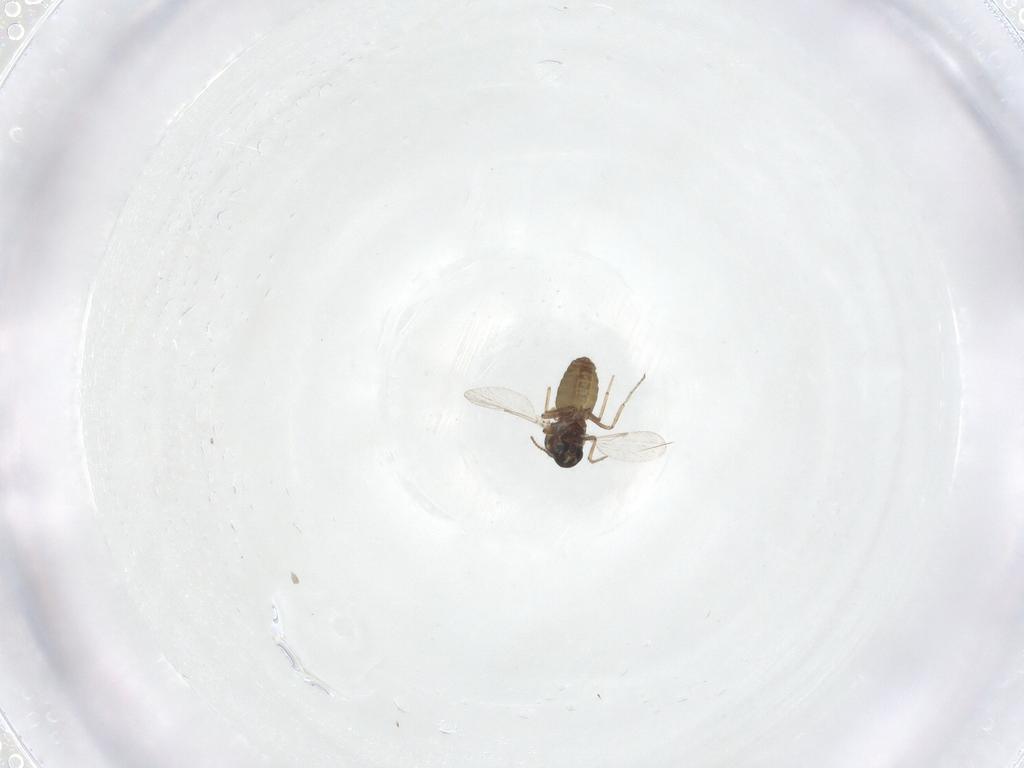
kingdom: Animalia
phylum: Arthropoda
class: Insecta
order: Diptera
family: Ceratopogonidae
